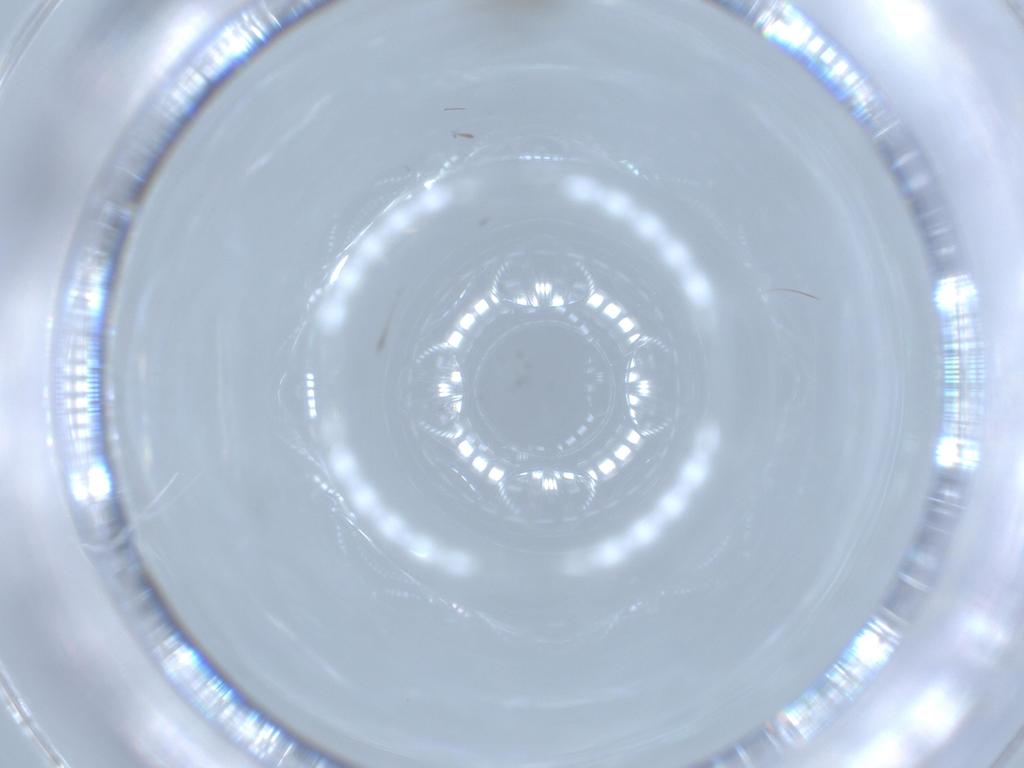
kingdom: Animalia
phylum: Arthropoda
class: Insecta
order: Diptera
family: Chironomidae
